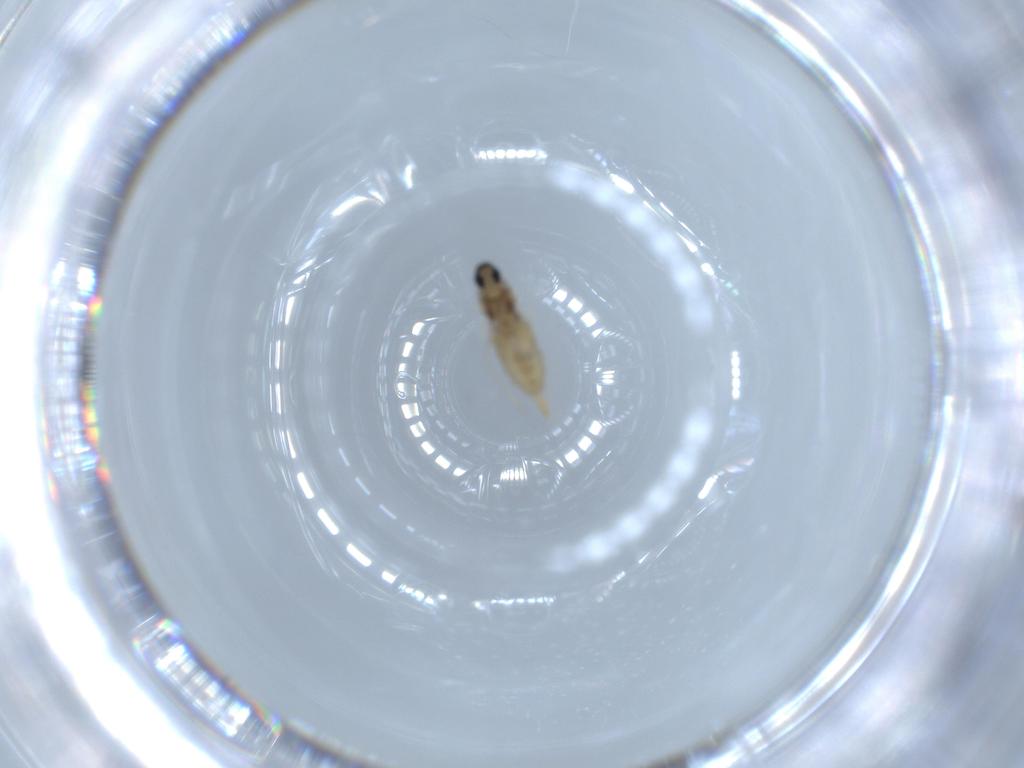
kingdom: Animalia
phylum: Arthropoda
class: Insecta
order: Diptera
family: Cecidomyiidae
